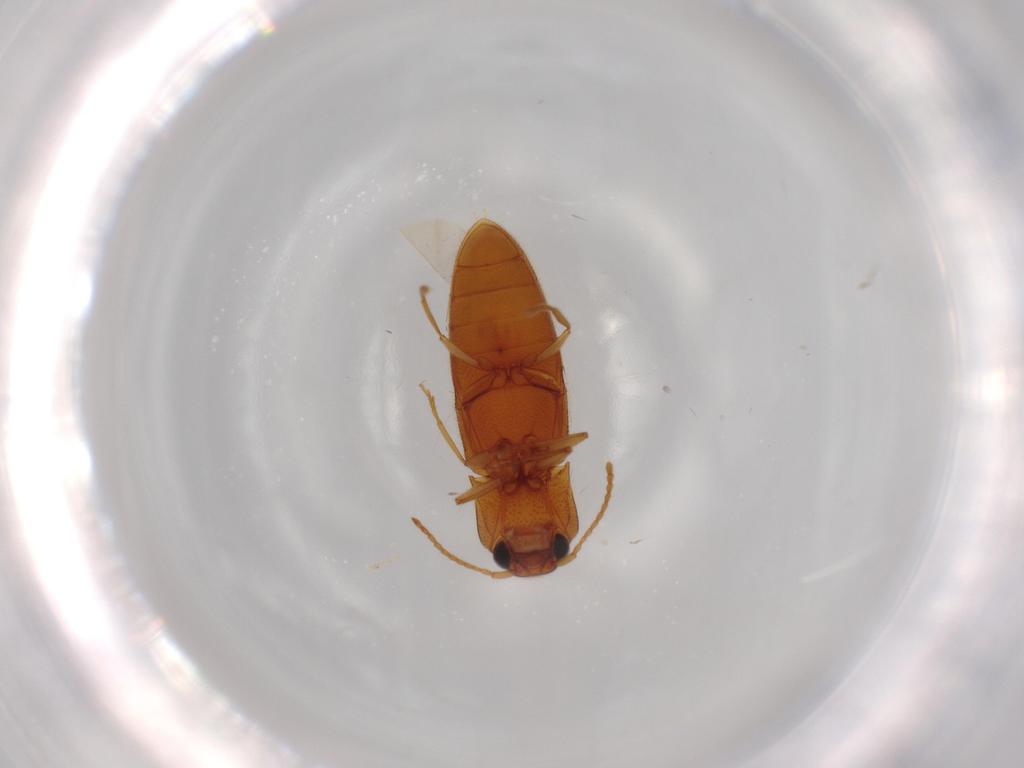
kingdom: Animalia
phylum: Arthropoda
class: Insecta
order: Coleoptera
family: Elateridae
